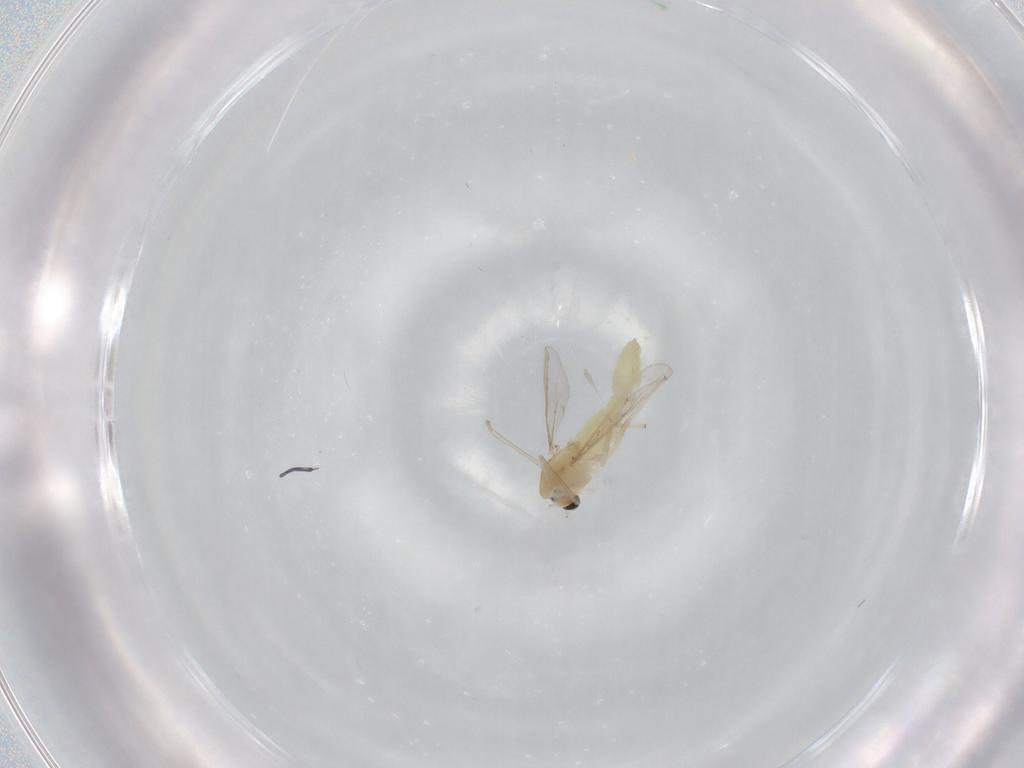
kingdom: Animalia
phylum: Arthropoda
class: Insecta
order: Diptera
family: Chironomidae
